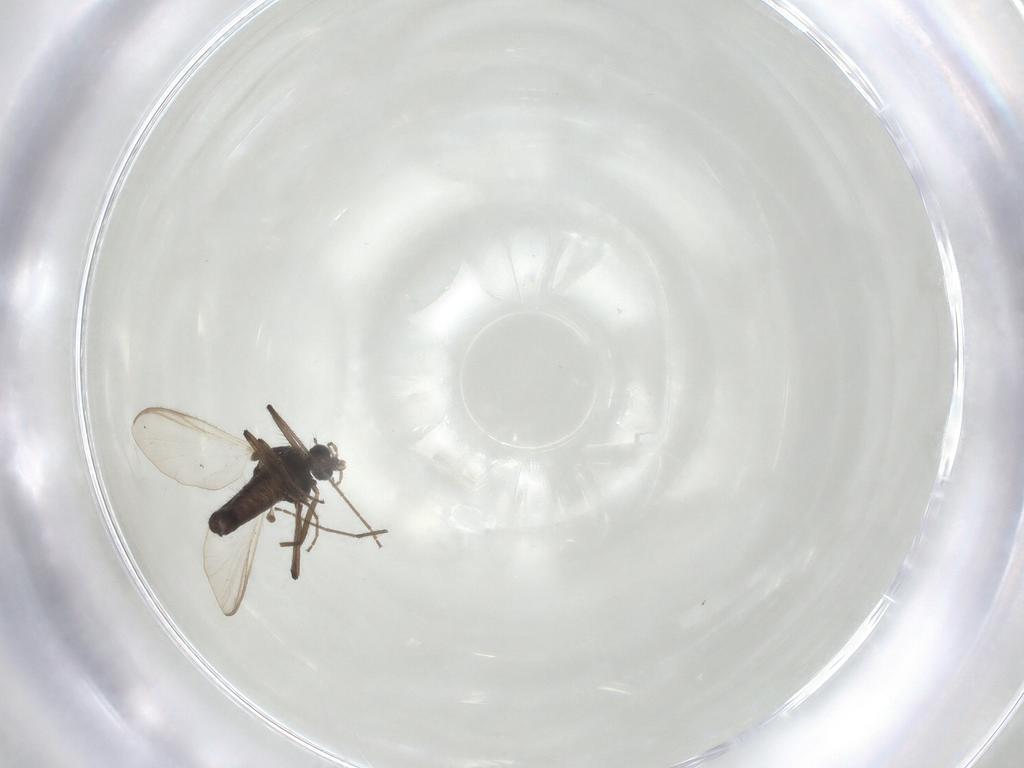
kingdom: Animalia
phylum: Arthropoda
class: Insecta
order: Diptera
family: Chironomidae
